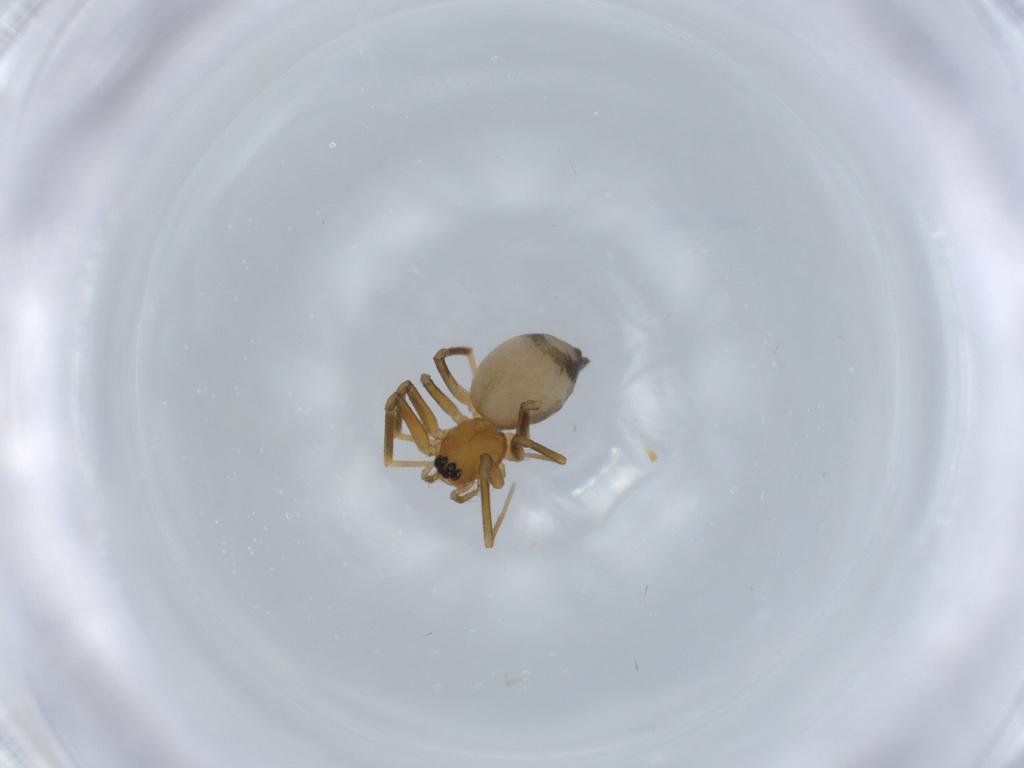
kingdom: Animalia
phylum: Arthropoda
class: Arachnida
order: Araneae
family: Linyphiidae
